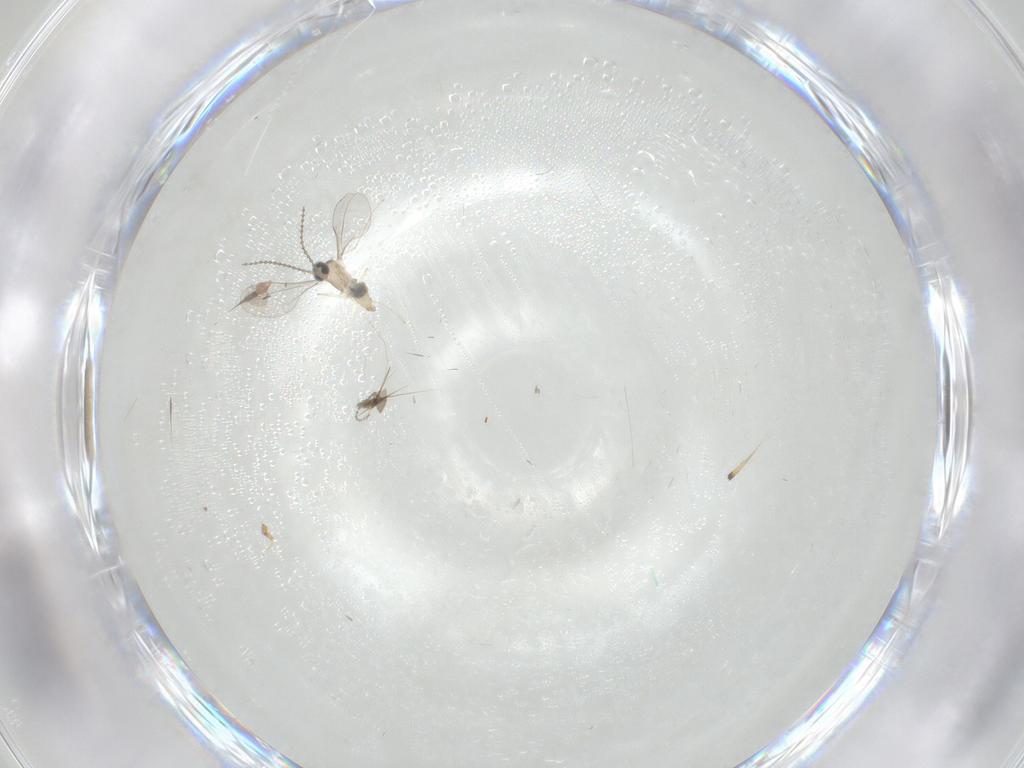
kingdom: Animalia
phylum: Arthropoda
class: Insecta
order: Diptera
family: Cecidomyiidae
